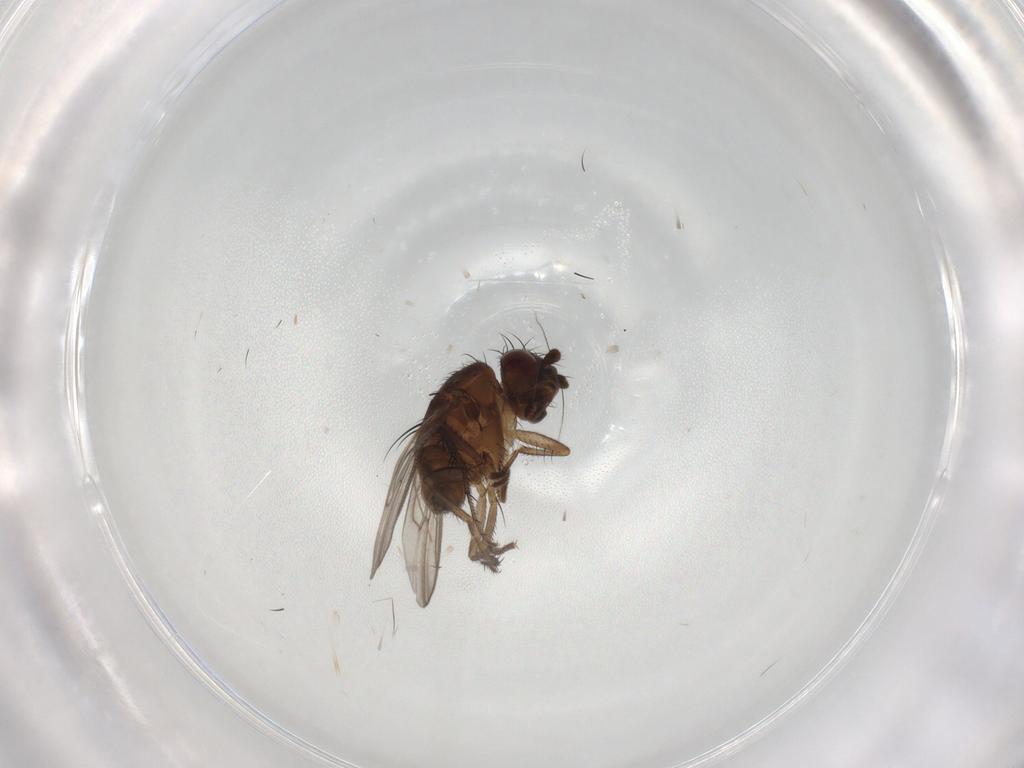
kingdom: Animalia
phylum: Arthropoda
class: Insecta
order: Diptera
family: Sphaeroceridae
